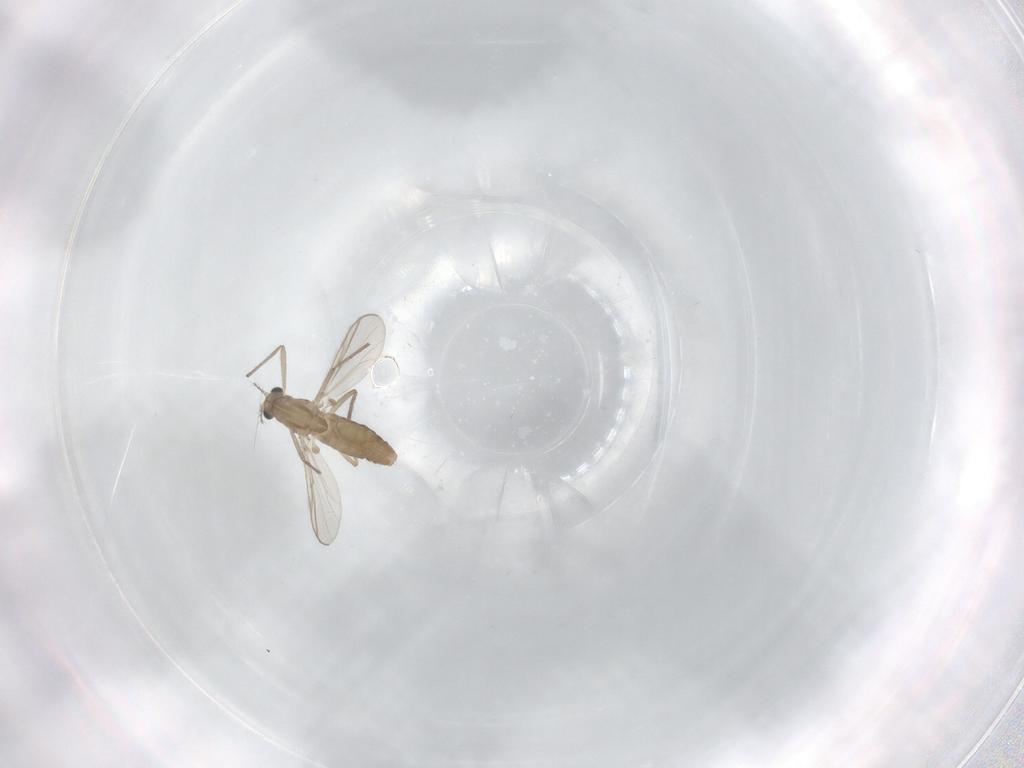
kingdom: Animalia
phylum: Arthropoda
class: Insecta
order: Diptera
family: Chironomidae
